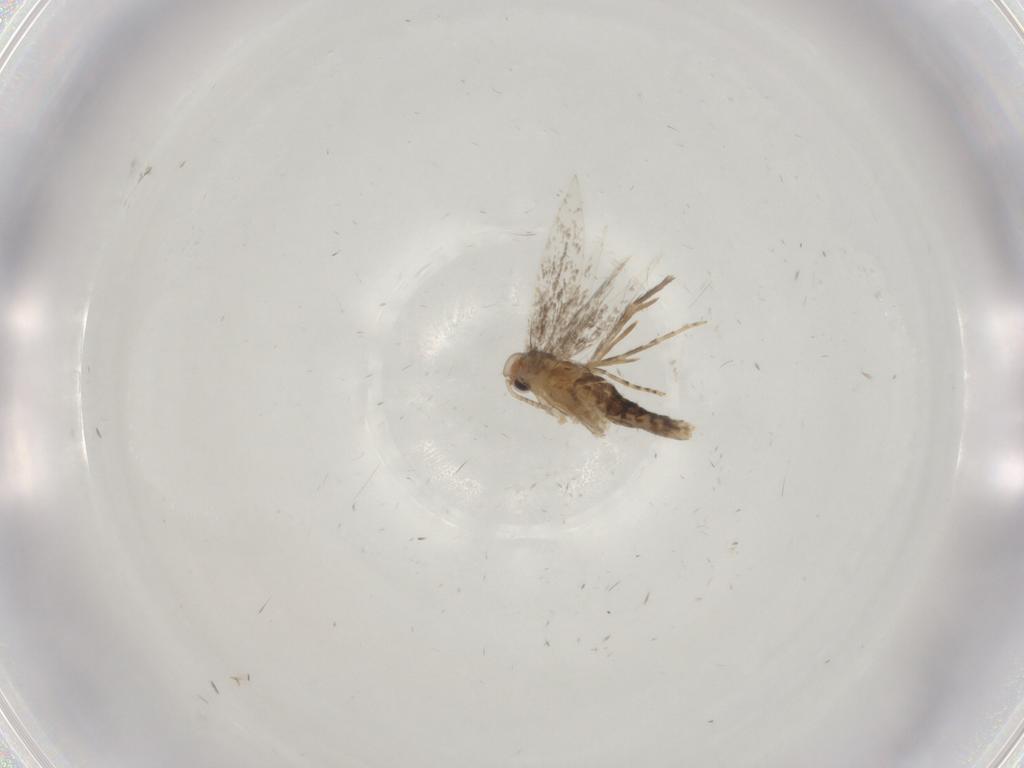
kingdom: Animalia
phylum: Arthropoda
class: Insecta
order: Lepidoptera
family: Gracillariidae
